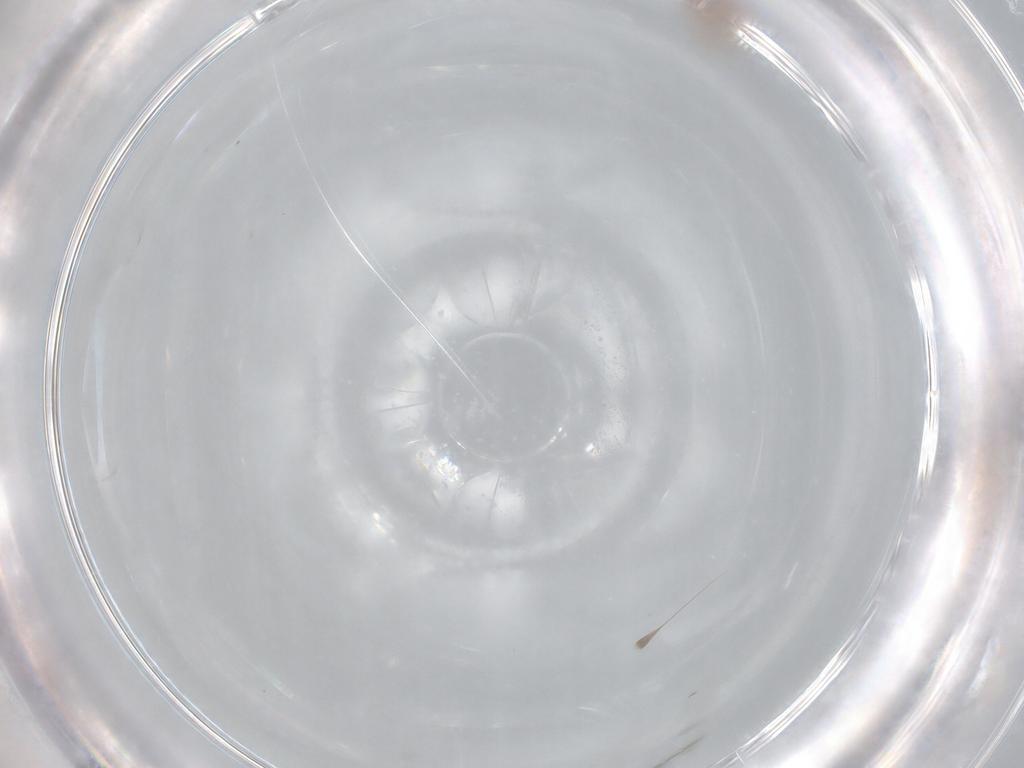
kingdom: Animalia
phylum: Arthropoda
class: Insecta
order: Hemiptera
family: Aleyrodidae
